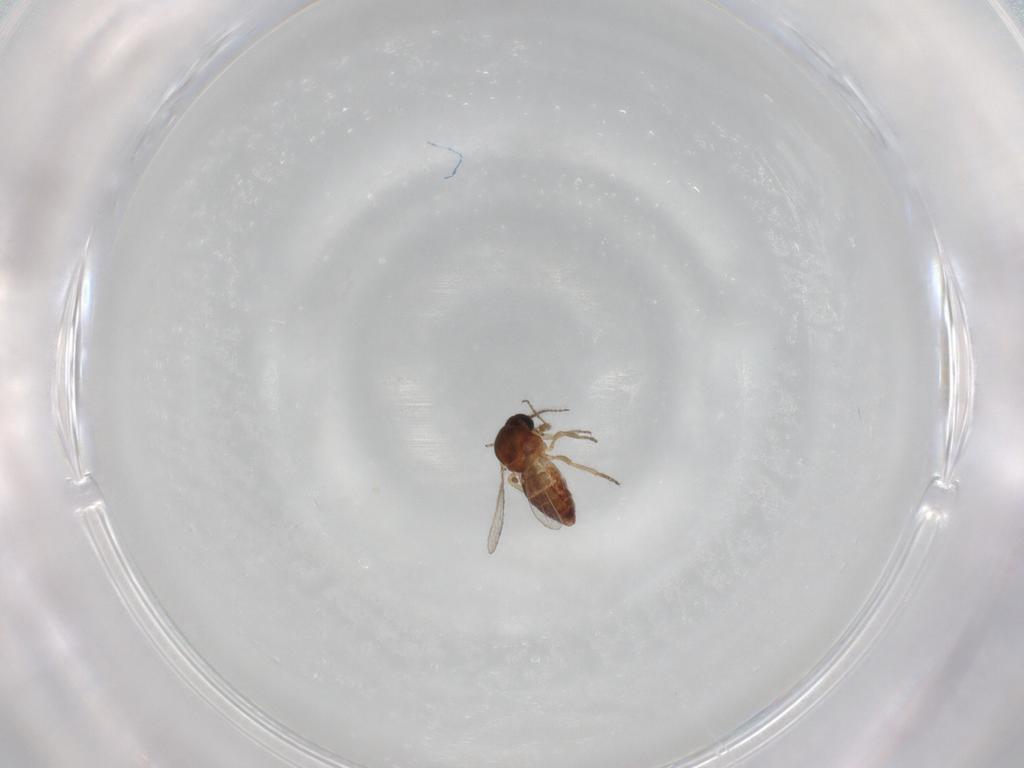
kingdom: Animalia
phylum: Arthropoda
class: Insecta
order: Diptera
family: Ceratopogonidae
